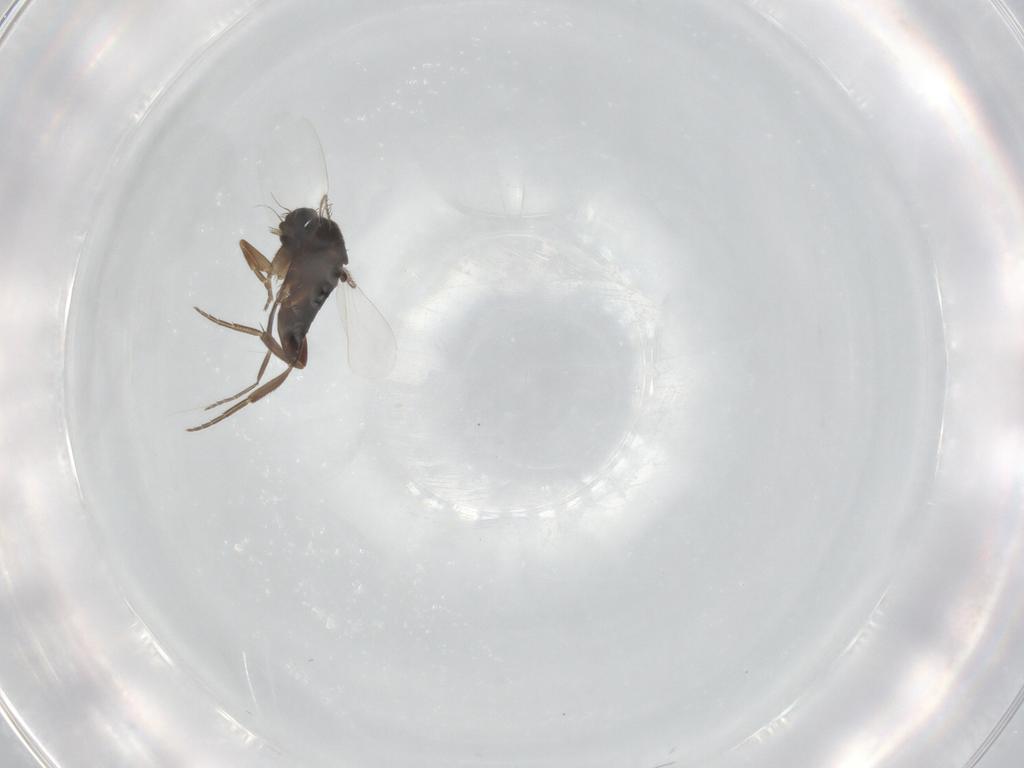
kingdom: Animalia
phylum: Arthropoda
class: Insecta
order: Diptera
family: Phoridae
